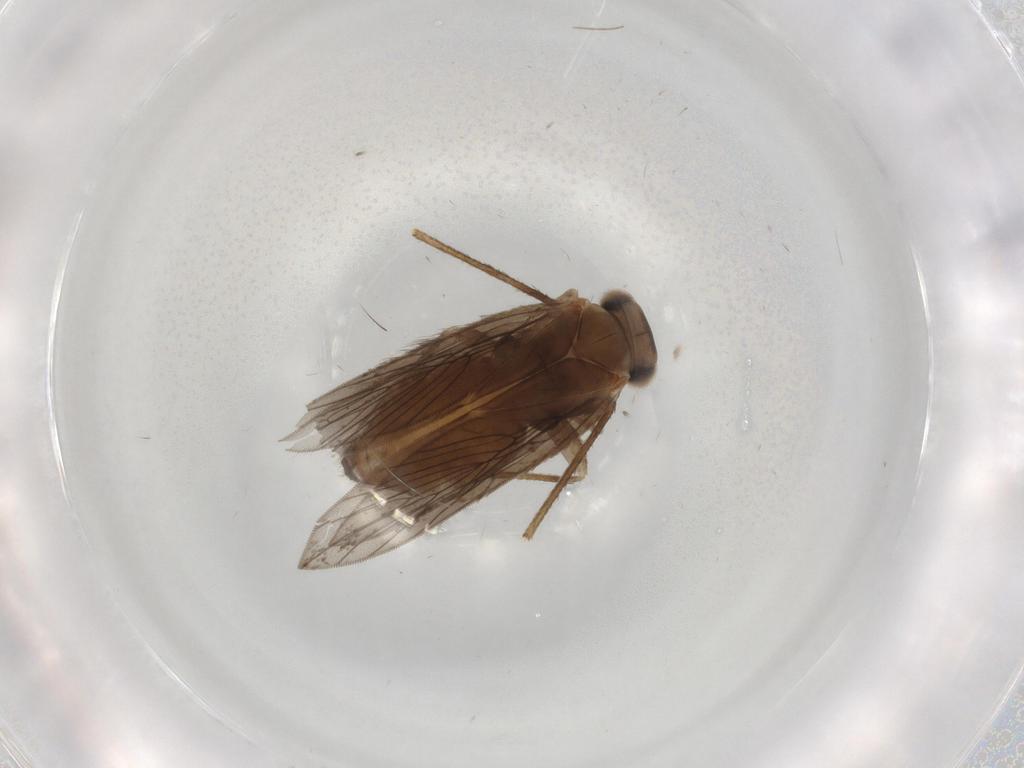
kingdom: Animalia
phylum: Arthropoda
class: Insecta
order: Psocodea
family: Lepidopsocidae
